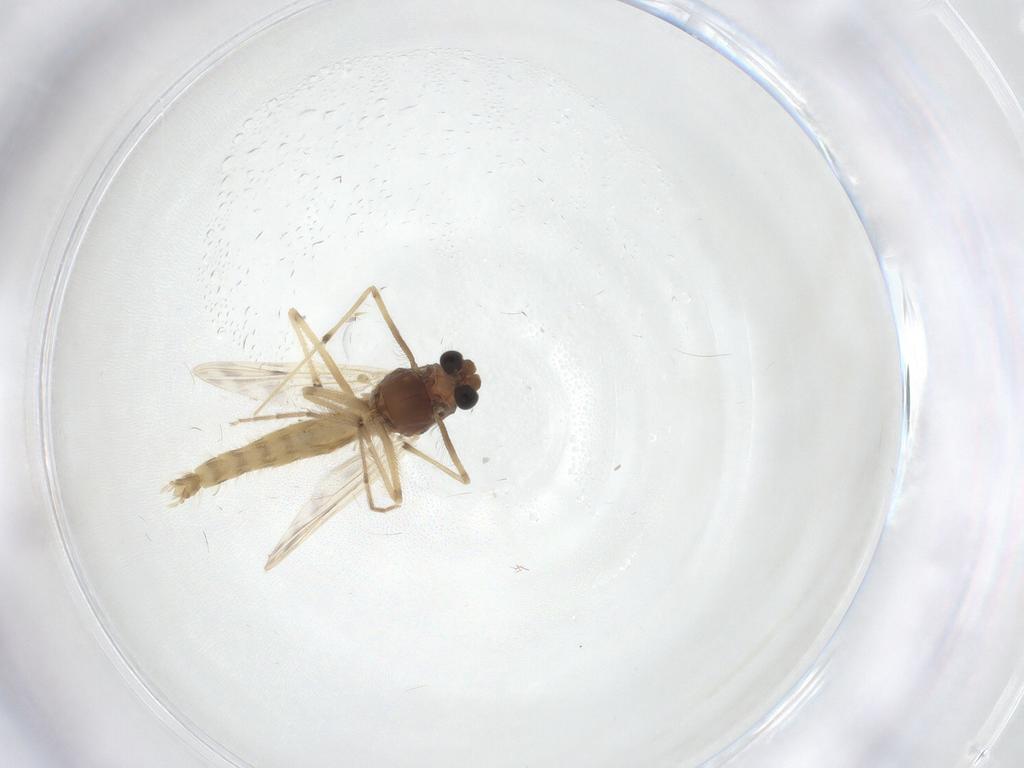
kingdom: Animalia
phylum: Arthropoda
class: Insecta
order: Diptera
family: Chironomidae
